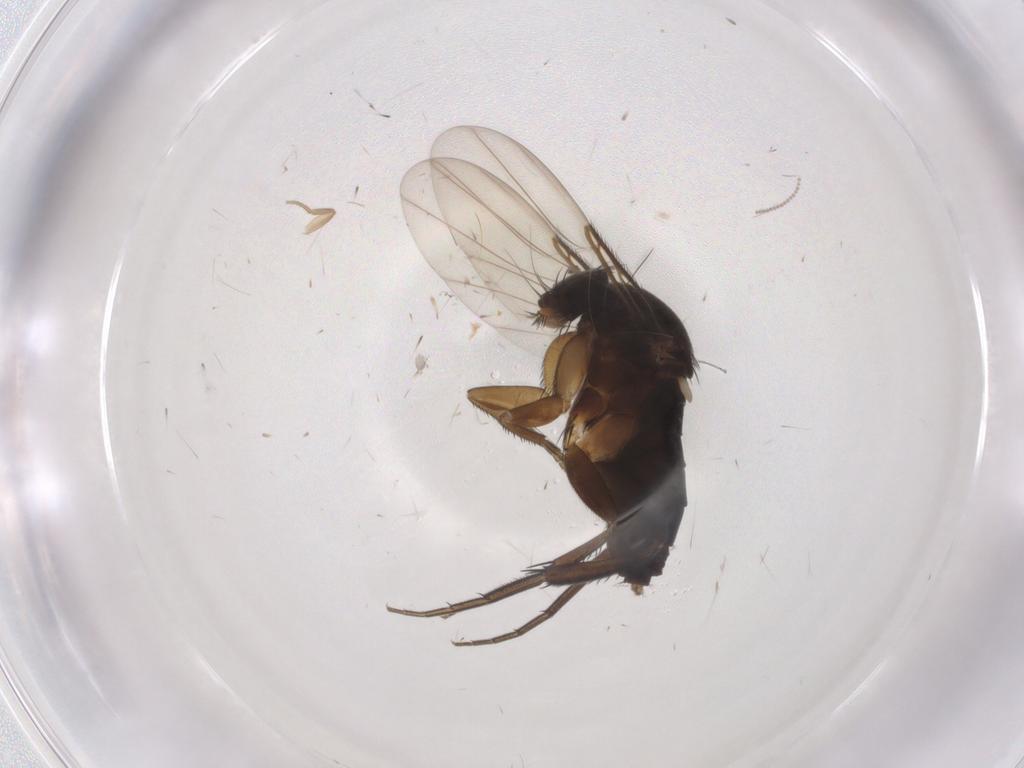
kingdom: Animalia
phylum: Arthropoda
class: Insecta
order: Diptera
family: Phoridae
